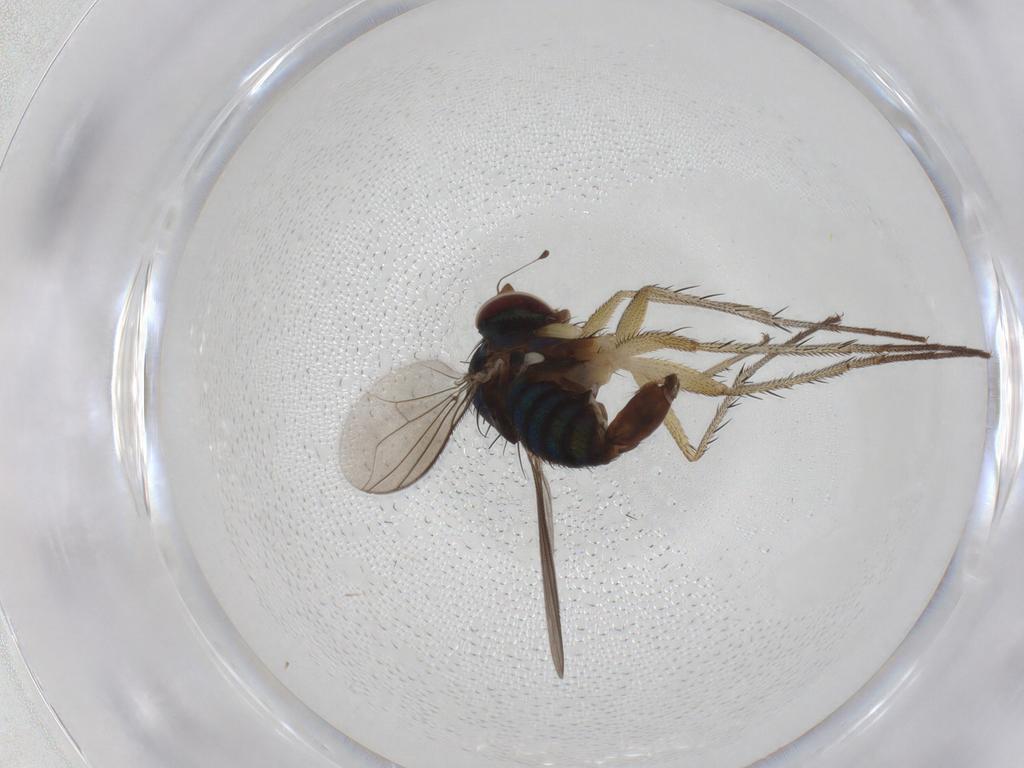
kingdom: Animalia
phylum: Arthropoda
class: Insecta
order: Diptera
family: Dolichopodidae
